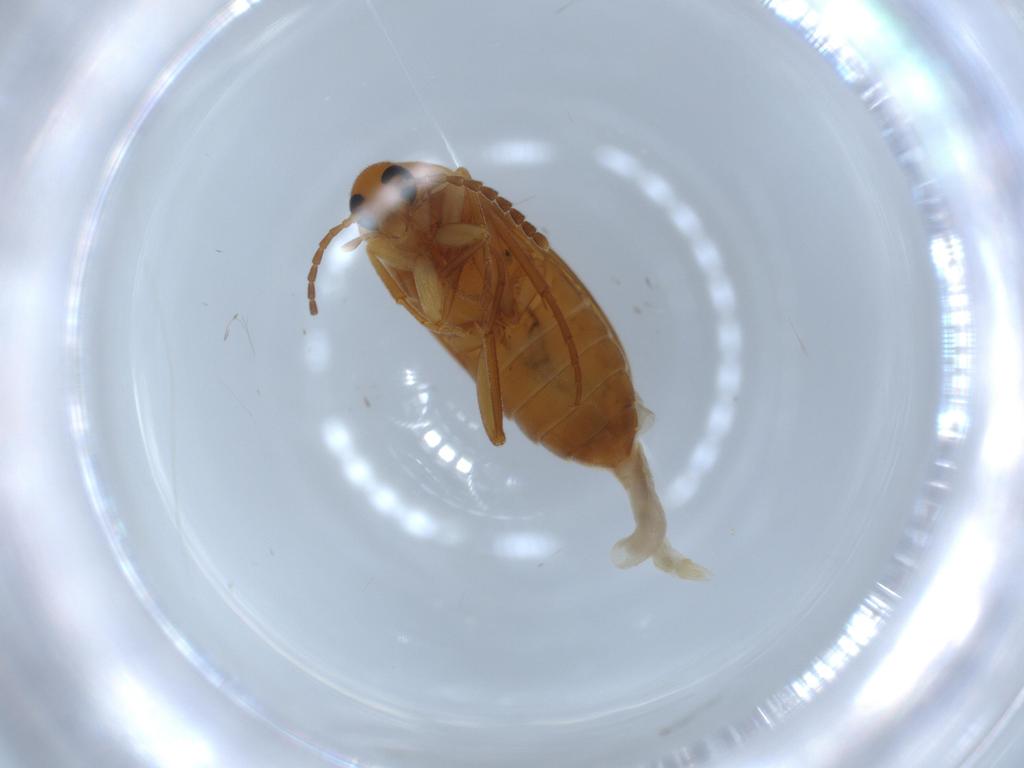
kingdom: Animalia
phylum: Arthropoda
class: Insecta
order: Coleoptera
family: Scraptiidae
